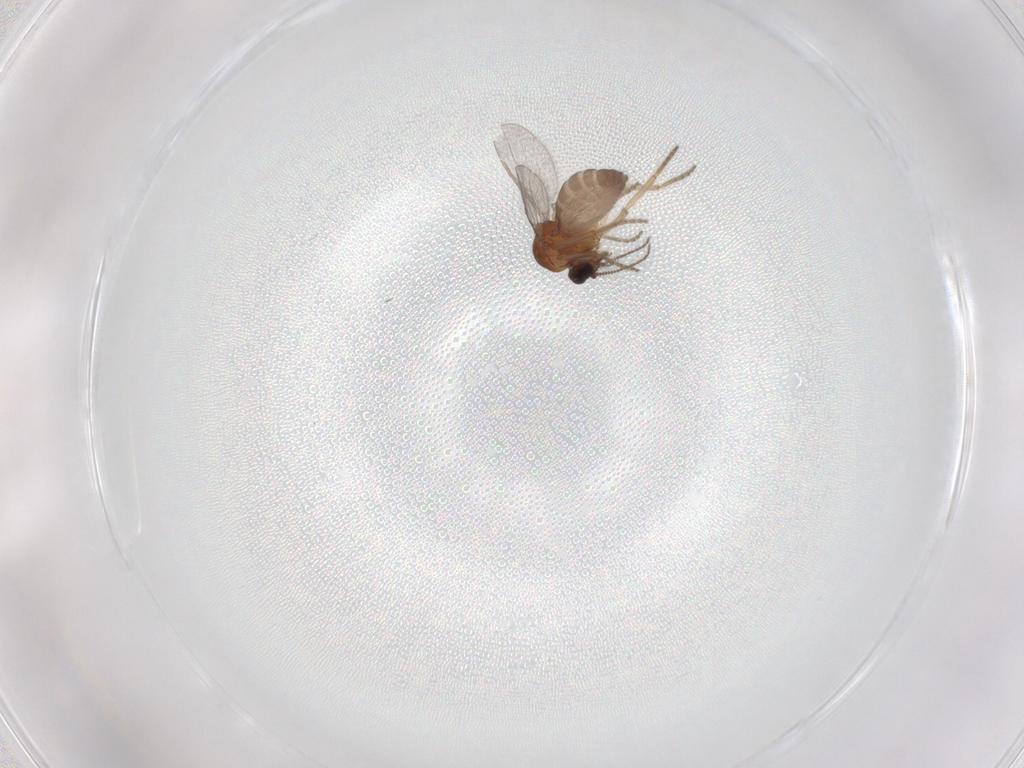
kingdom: Animalia
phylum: Arthropoda
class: Insecta
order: Diptera
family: Ceratopogonidae
